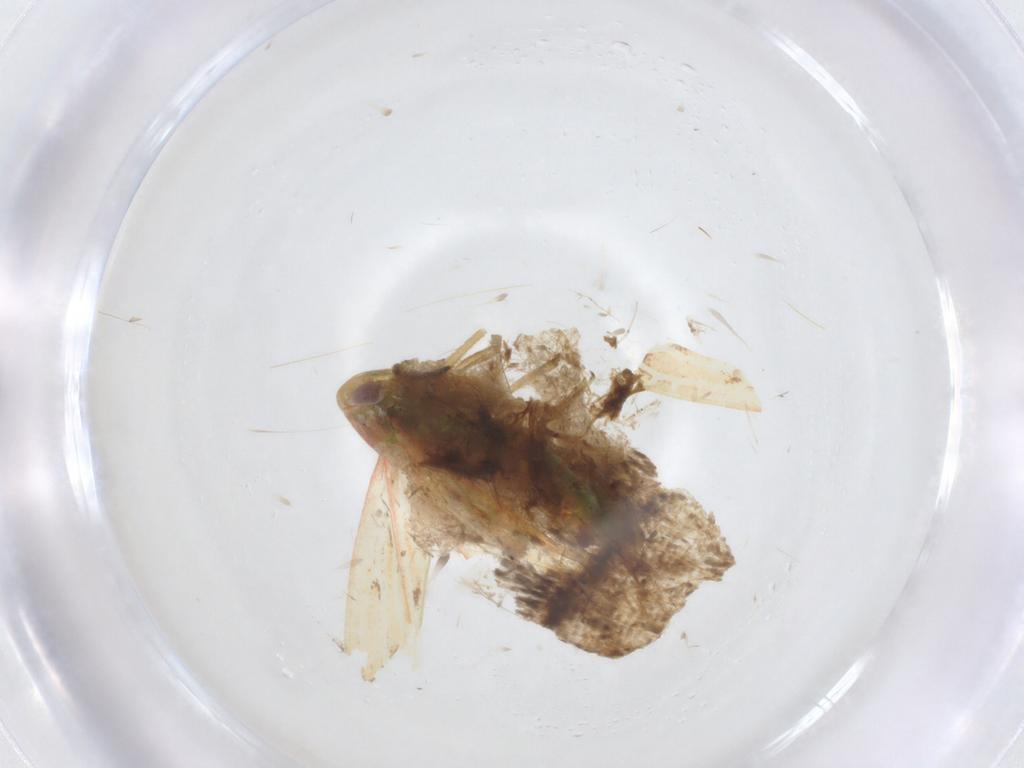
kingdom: Animalia
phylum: Arthropoda
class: Insecta
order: Hemiptera
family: Cicadellidae
